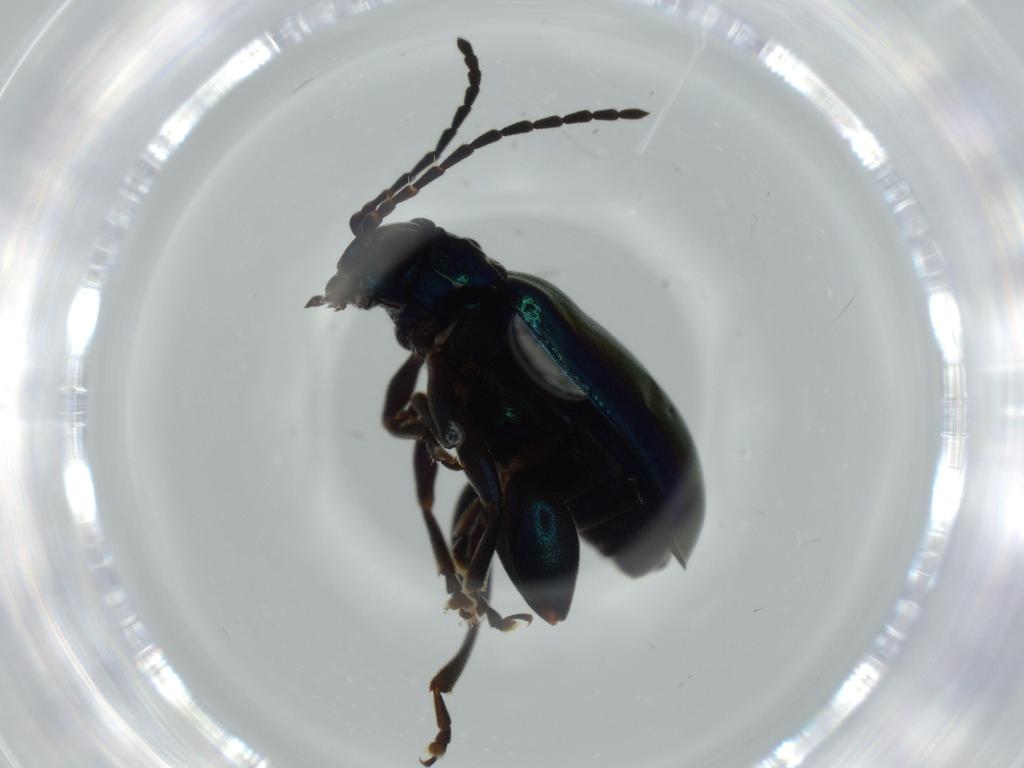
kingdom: Animalia
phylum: Arthropoda
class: Insecta
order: Coleoptera
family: Chrysomelidae
